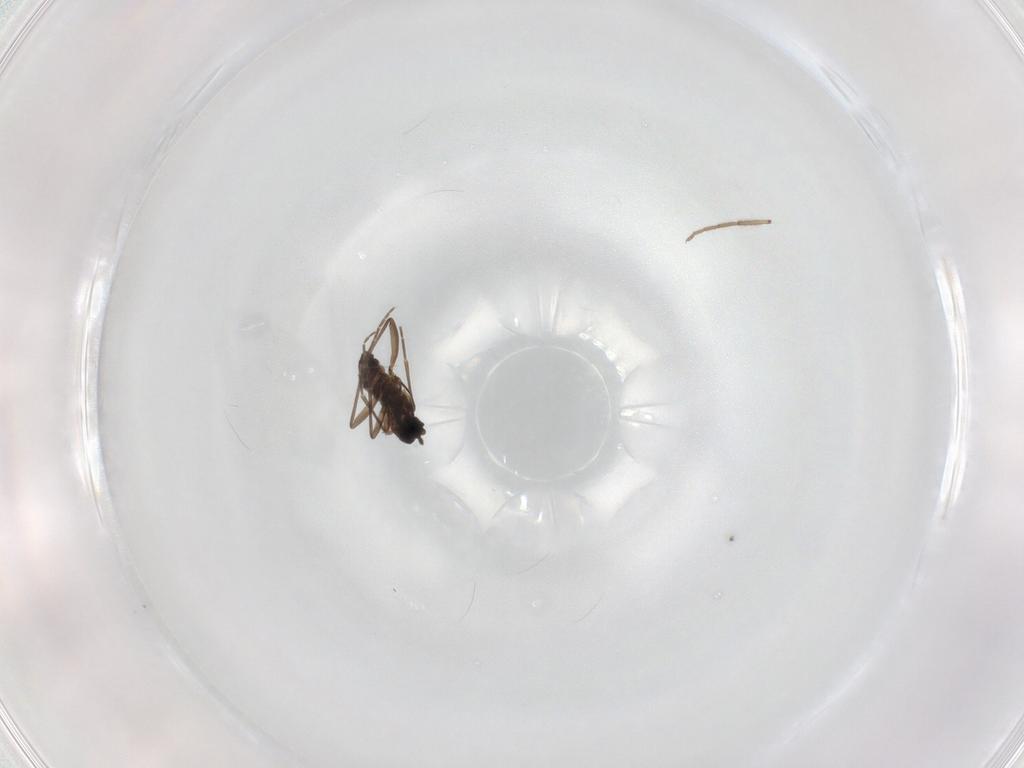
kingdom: Animalia
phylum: Arthropoda
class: Insecta
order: Diptera
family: Sciaridae
